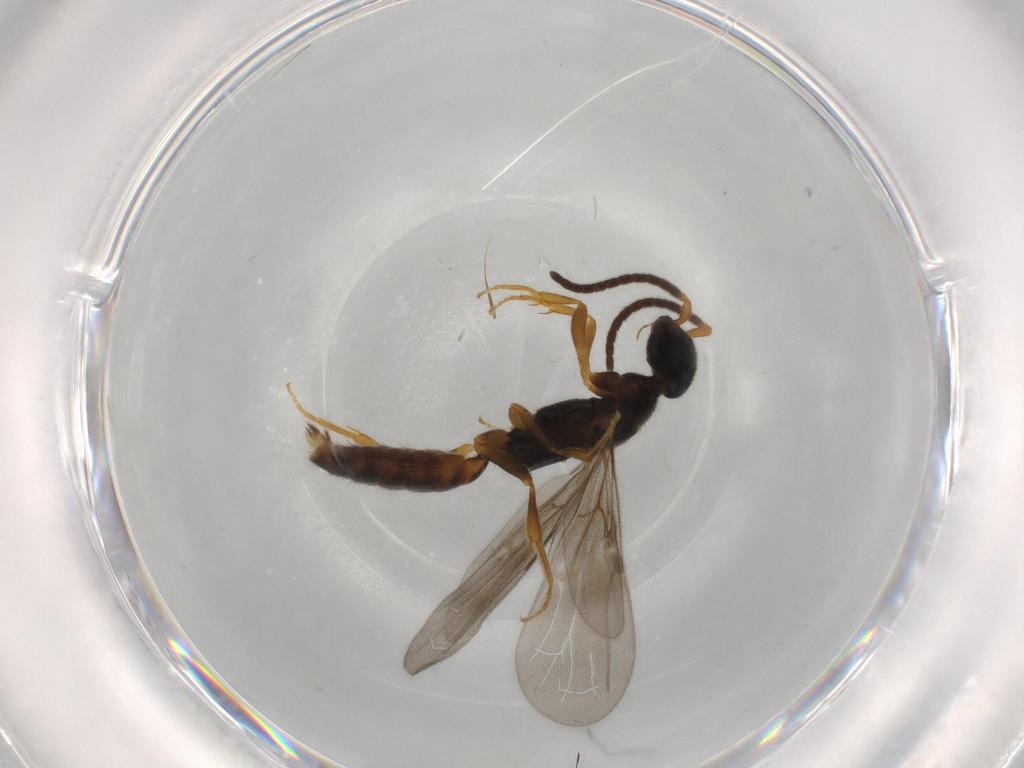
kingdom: Animalia
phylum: Arthropoda
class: Insecta
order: Hymenoptera
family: Bethylidae
